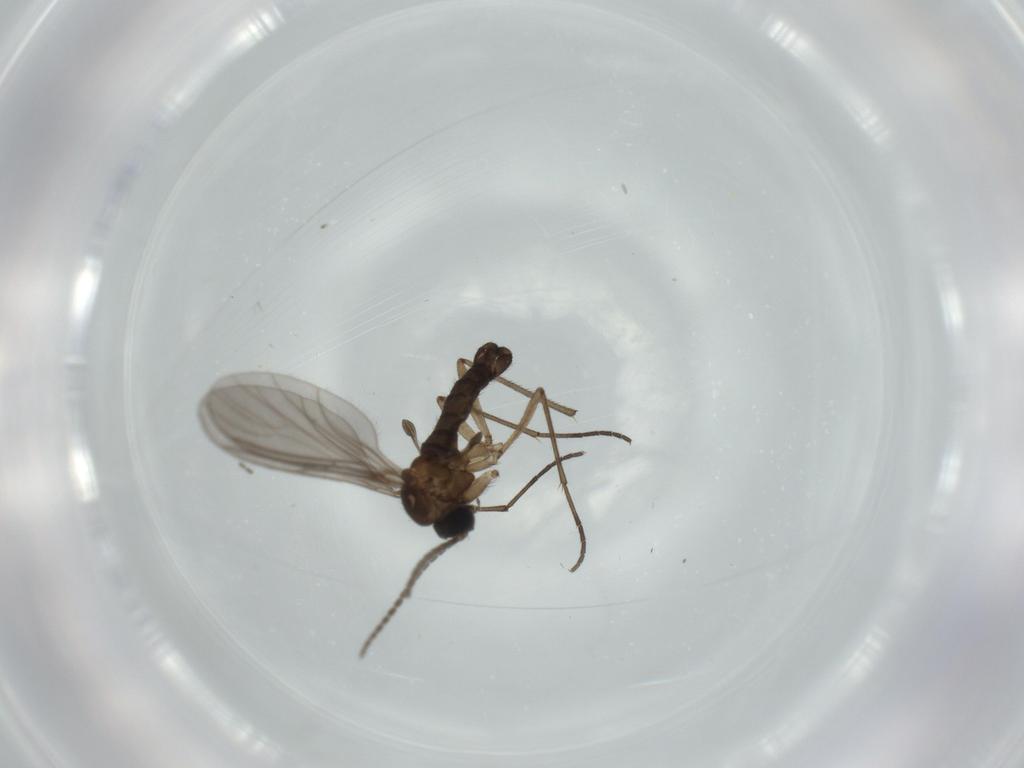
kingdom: Animalia
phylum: Arthropoda
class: Insecta
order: Diptera
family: Sciaridae
